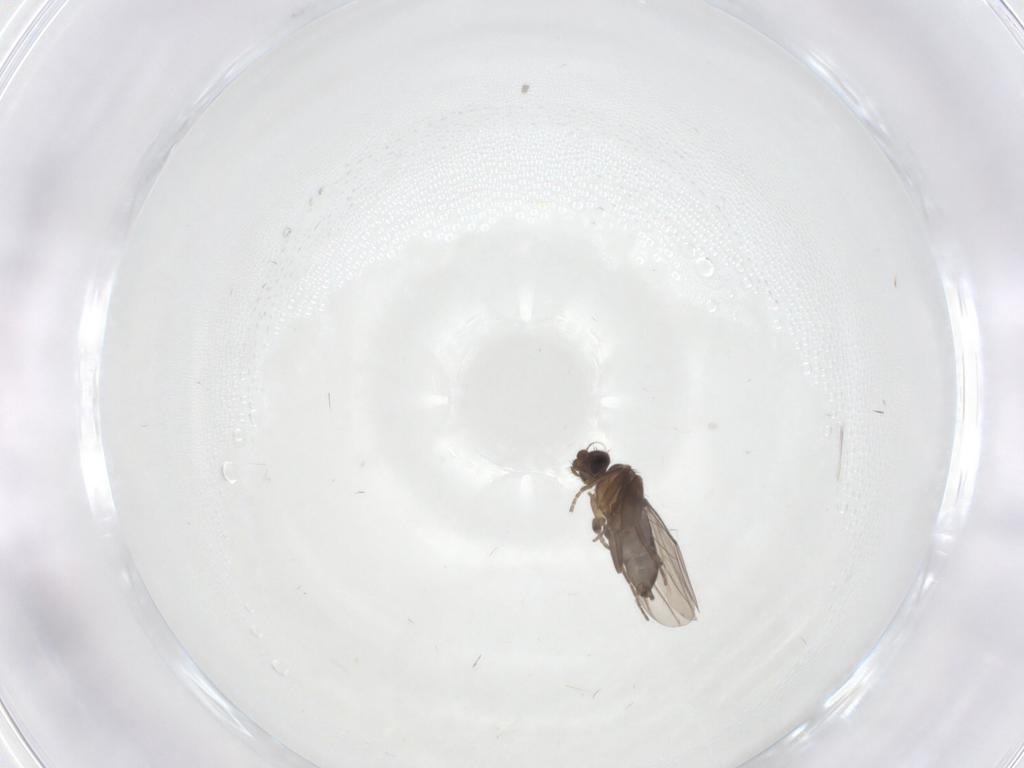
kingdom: Animalia
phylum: Arthropoda
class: Insecta
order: Diptera
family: Phoridae
